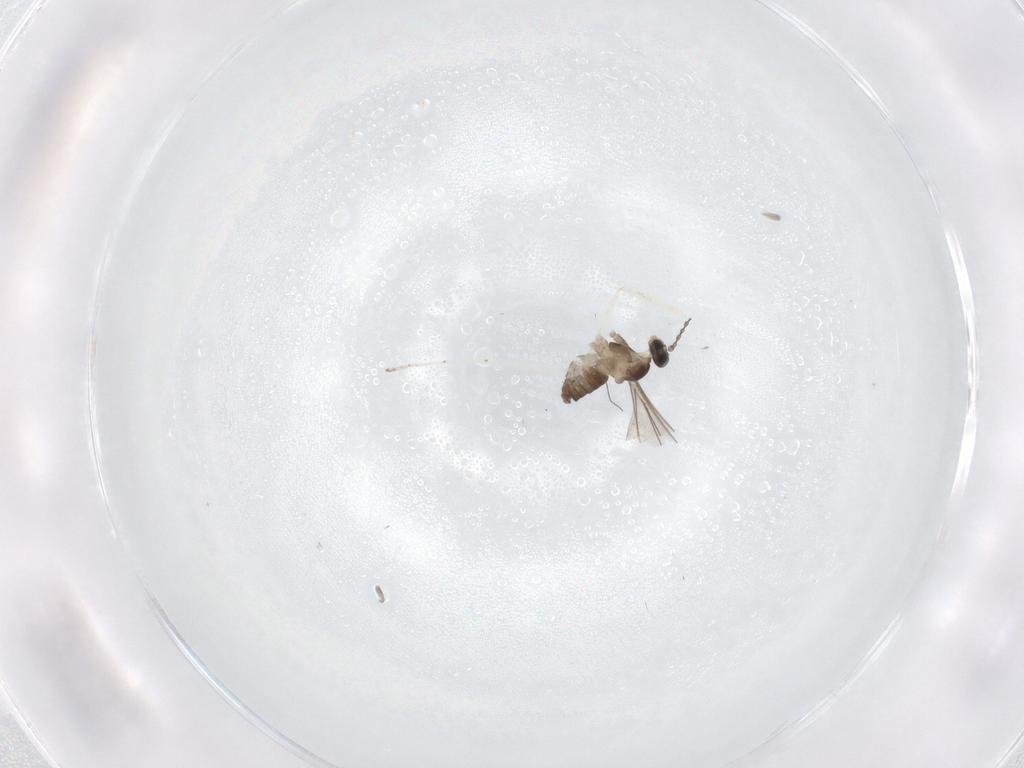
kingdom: Animalia
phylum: Arthropoda
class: Insecta
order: Diptera
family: Cecidomyiidae
